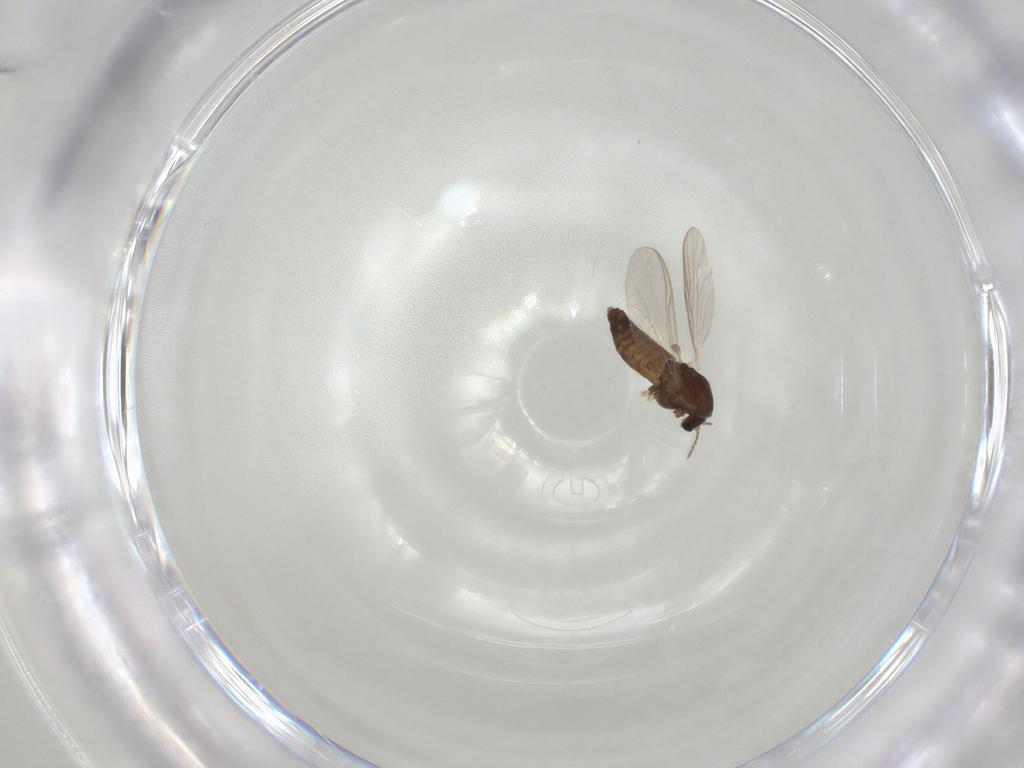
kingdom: Animalia
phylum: Arthropoda
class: Insecta
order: Diptera
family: Chironomidae
